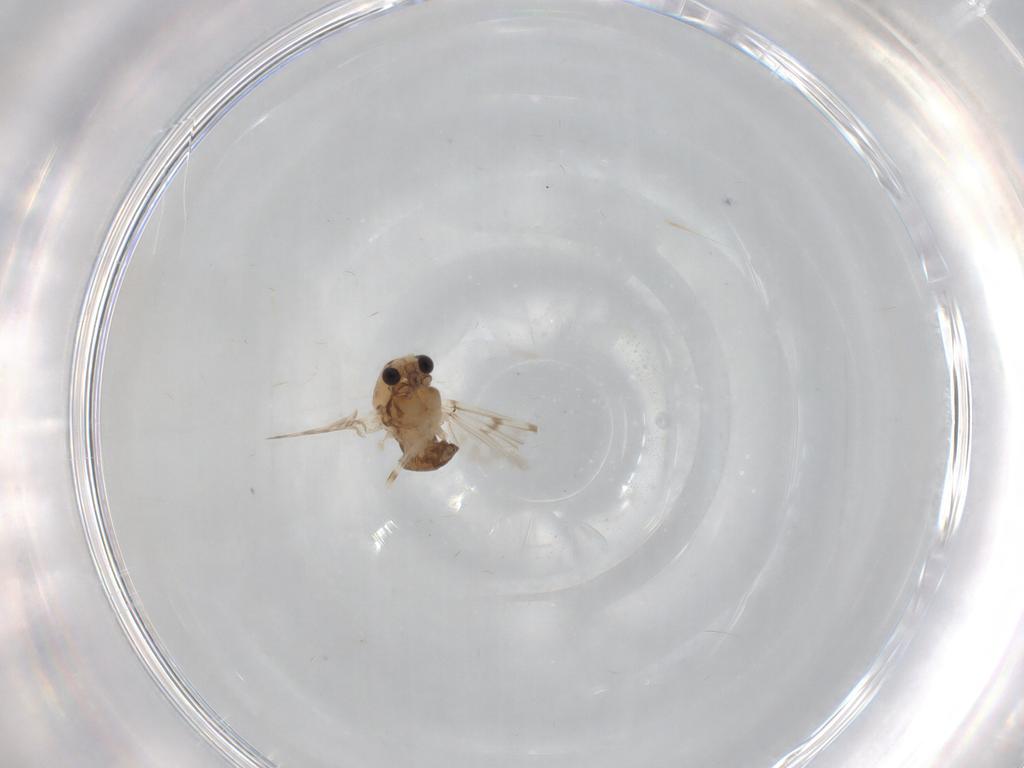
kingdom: Animalia
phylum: Arthropoda
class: Insecta
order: Diptera
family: Chironomidae
